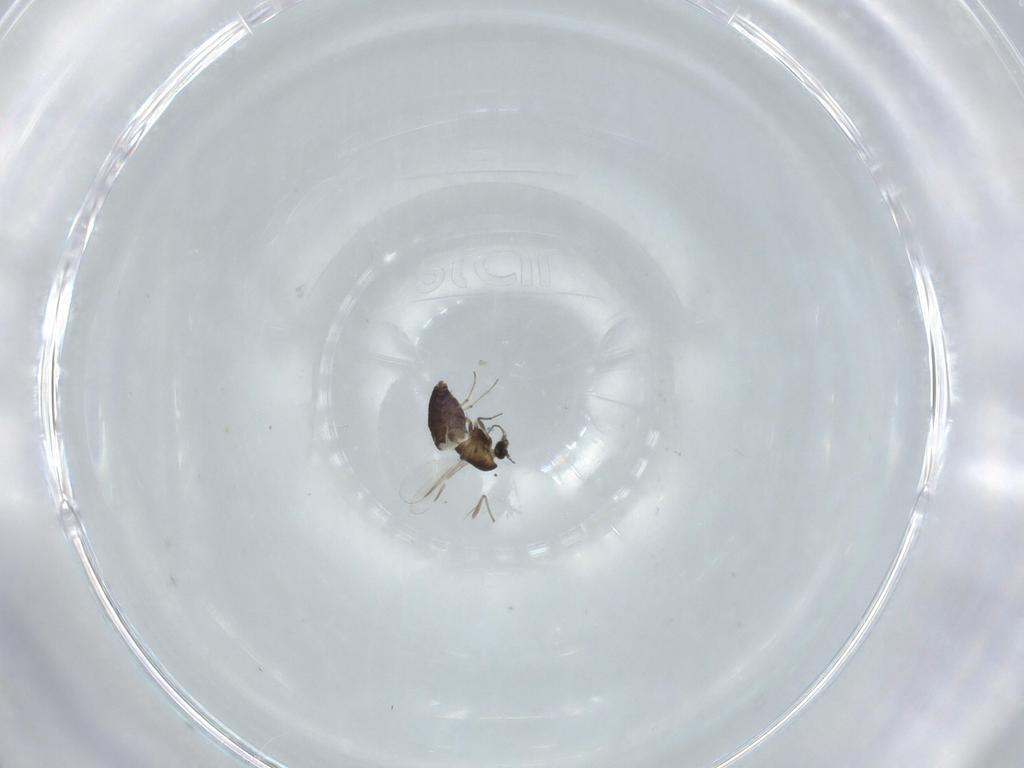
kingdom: Animalia
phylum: Arthropoda
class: Insecta
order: Diptera
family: Chironomidae
